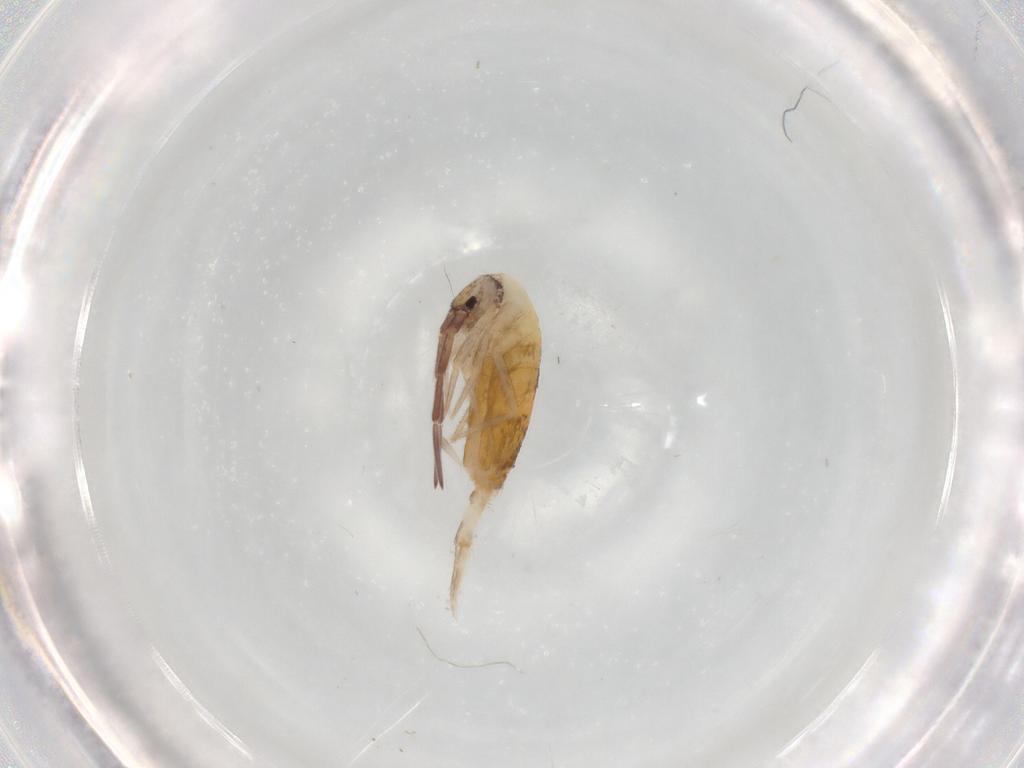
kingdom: Animalia
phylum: Arthropoda
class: Collembola
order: Entomobryomorpha
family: Entomobryidae
